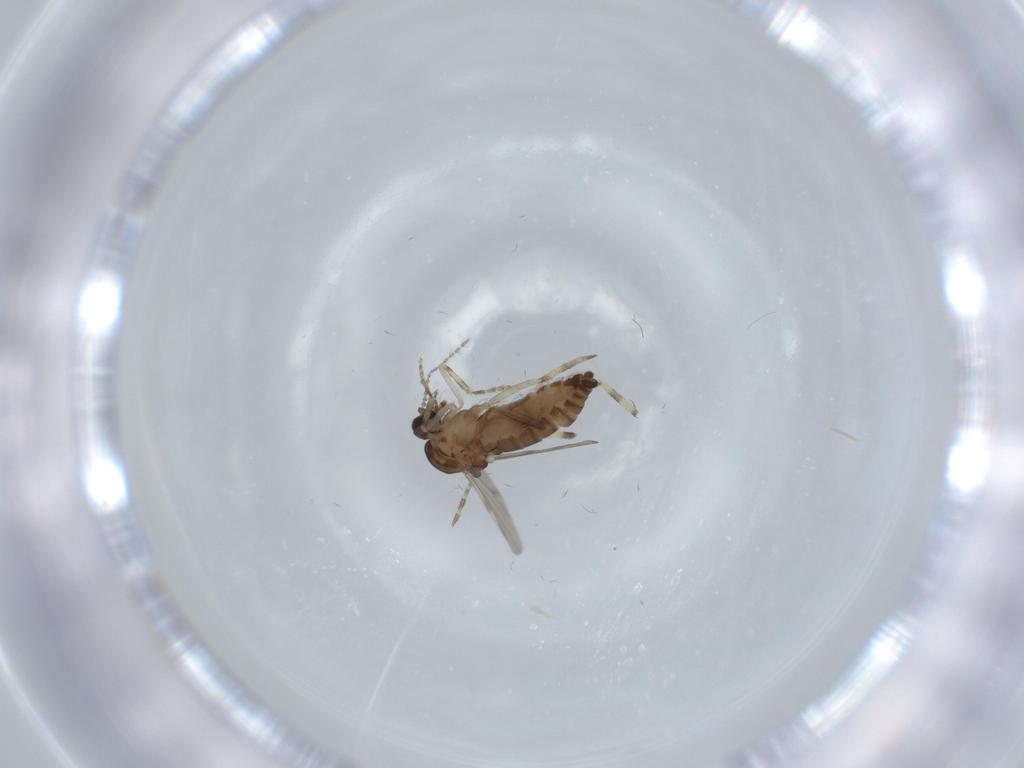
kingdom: Animalia
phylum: Arthropoda
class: Insecta
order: Diptera
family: Ceratopogonidae
